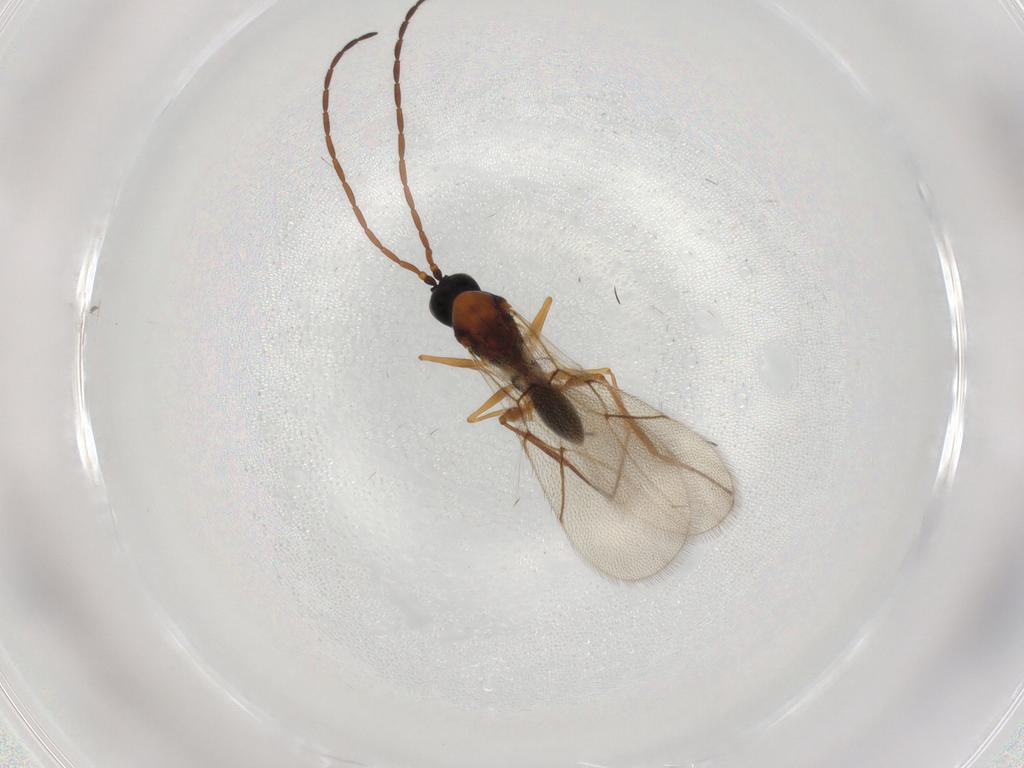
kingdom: Animalia
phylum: Arthropoda
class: Insecta
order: Hymenoptera
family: Figitidae
